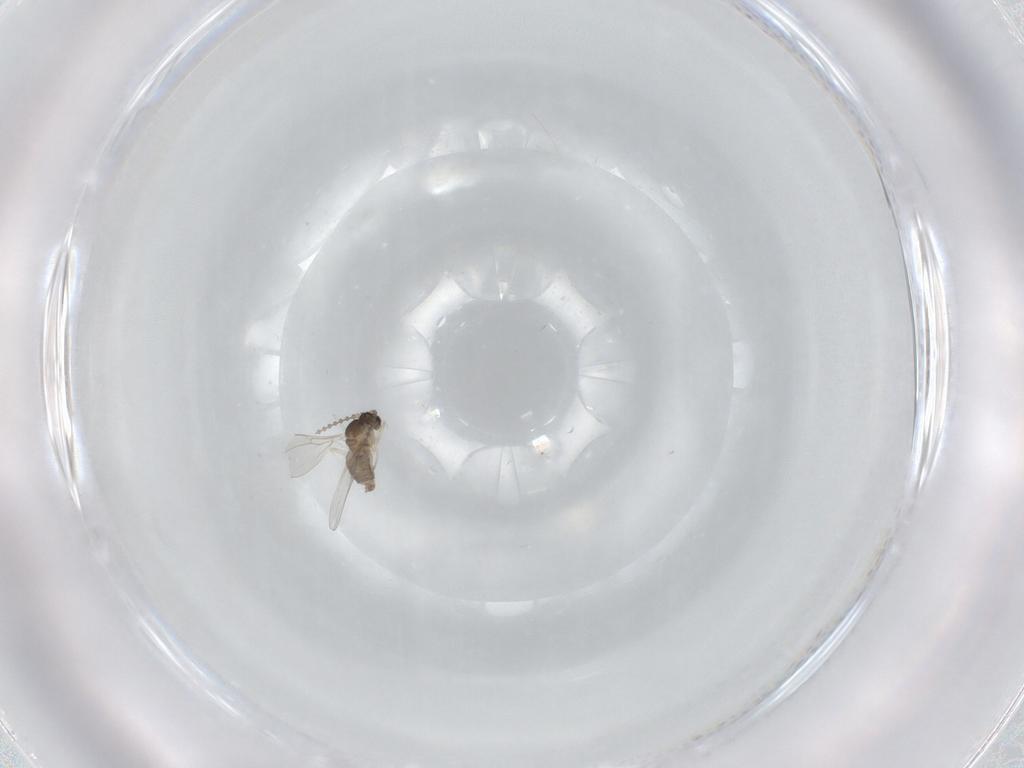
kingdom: Animalia
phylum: Arthropoda
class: Insecta
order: Diptera
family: Cecidomyiidae
